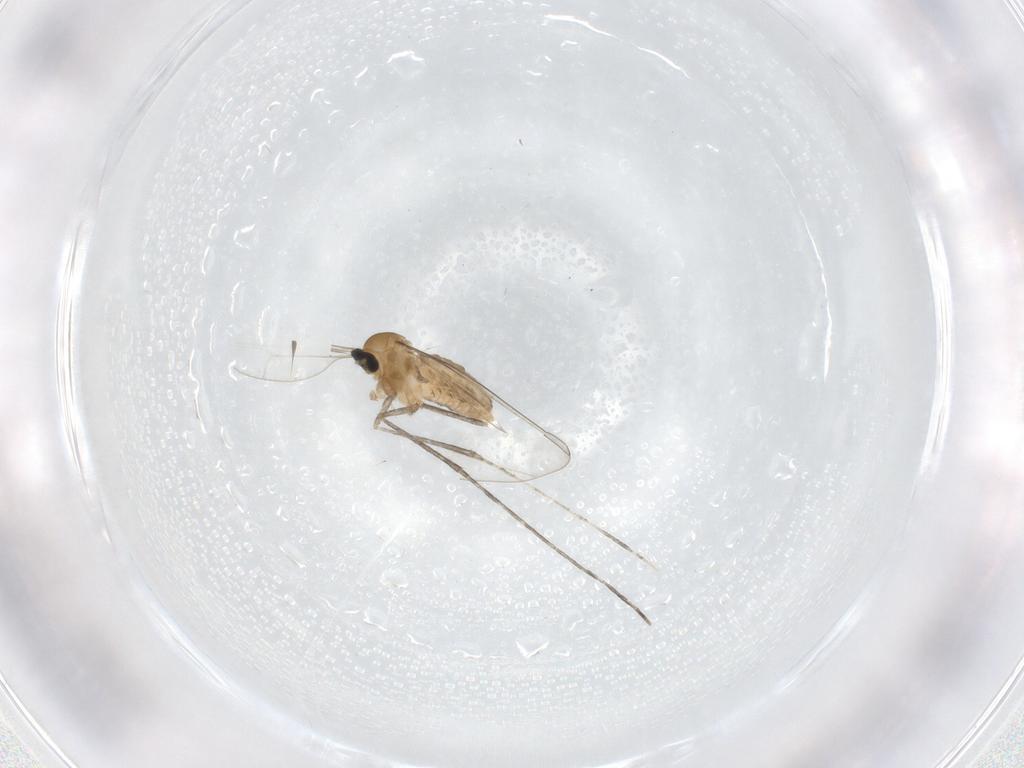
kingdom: Animalia
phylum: Arthropoda
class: Insecta
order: Diptera
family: Cecidomyiidae
